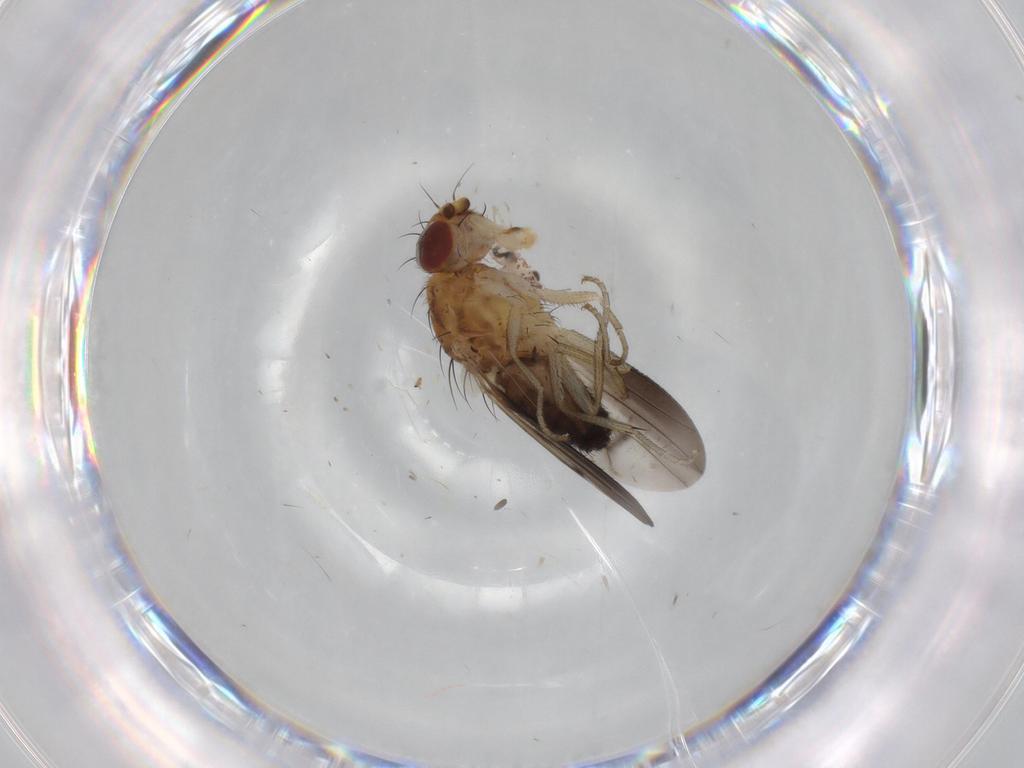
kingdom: Animalia
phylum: Arthropoda
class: Insecta
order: Diptera
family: Heleomyzidae
